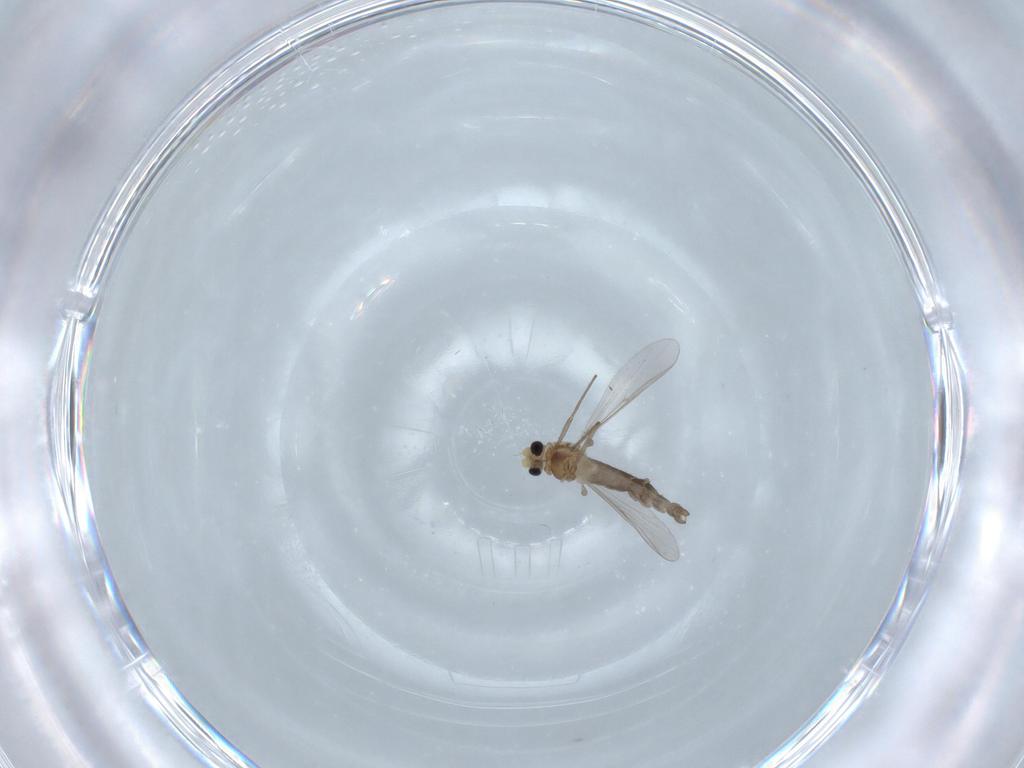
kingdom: Animalia
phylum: Arthropoda
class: Insecta
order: Diptera
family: Chironomidae
